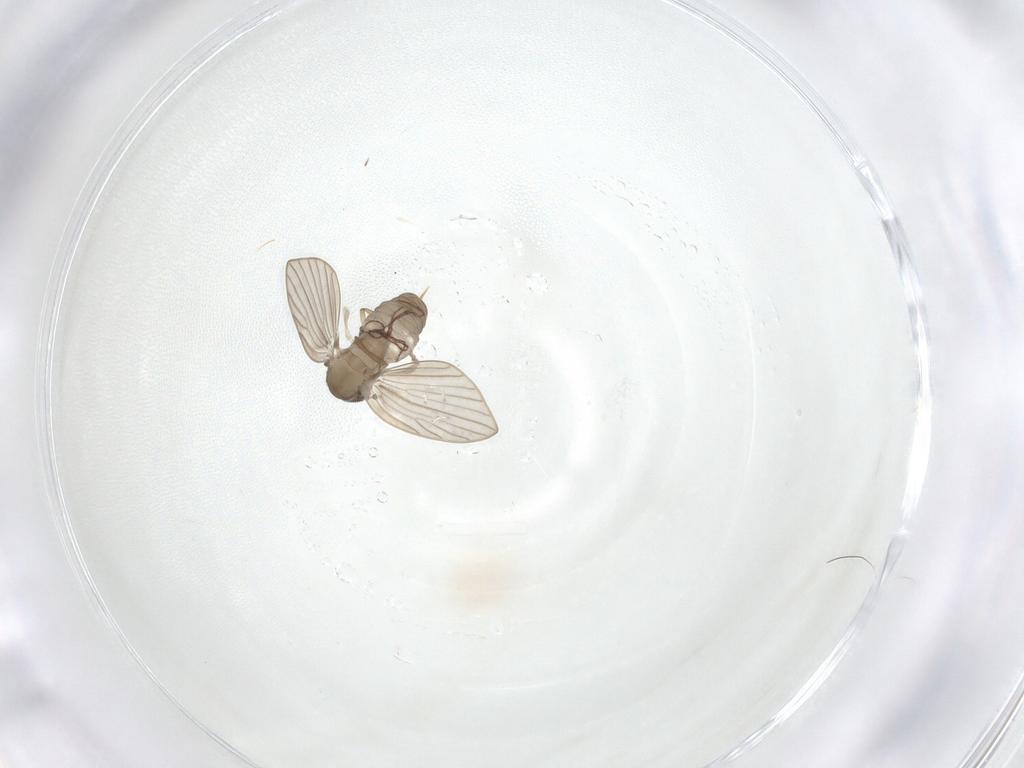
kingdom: Animalia
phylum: Arthropoda
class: Insecta
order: Diptera
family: Psychodidae
